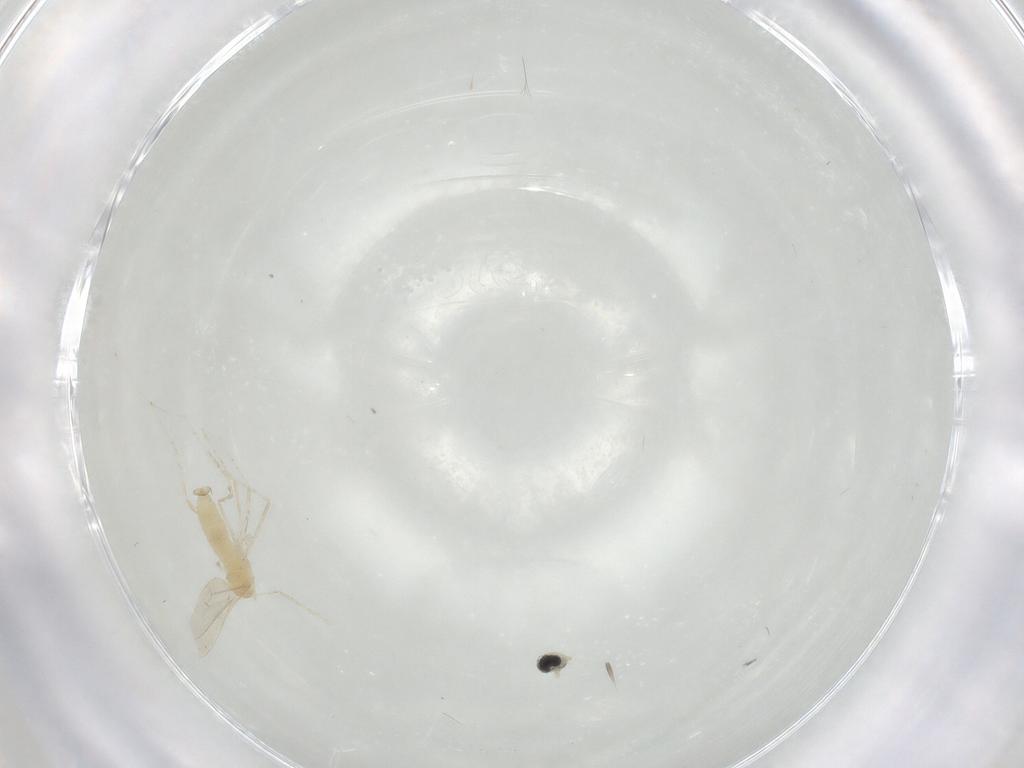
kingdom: Animalia
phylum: Arthropoda
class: Insecta
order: Diptera
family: Cecidomyiidae
